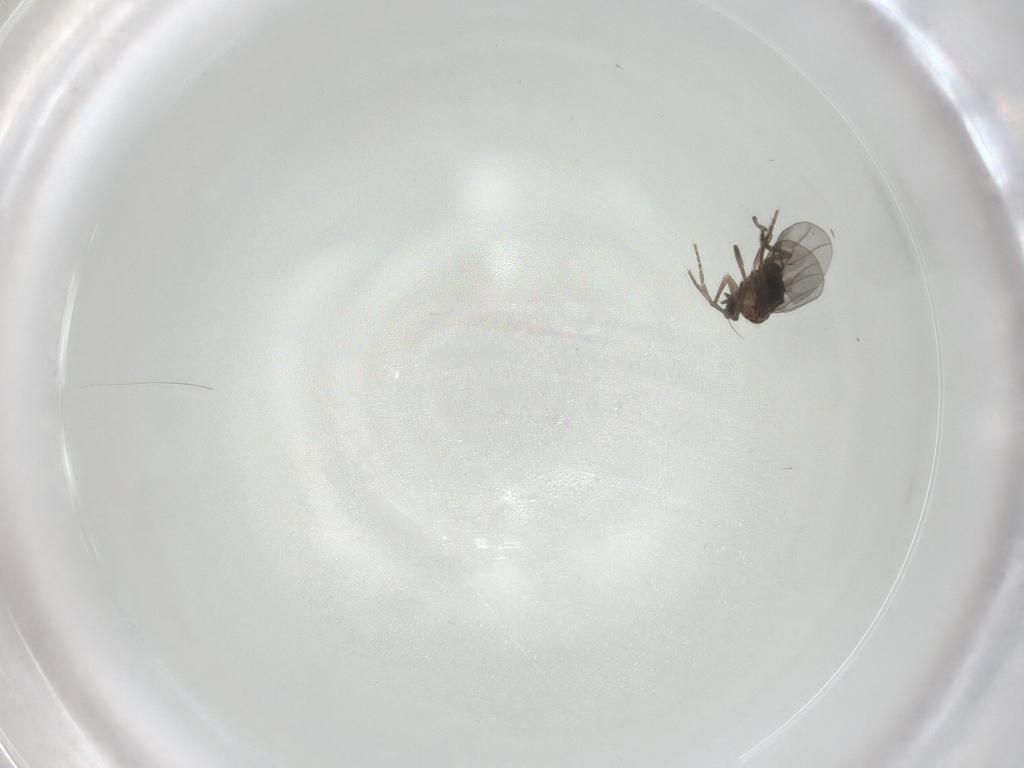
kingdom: Animalia
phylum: Arthropoda
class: Insecta
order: Diptera
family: Chironomidae
